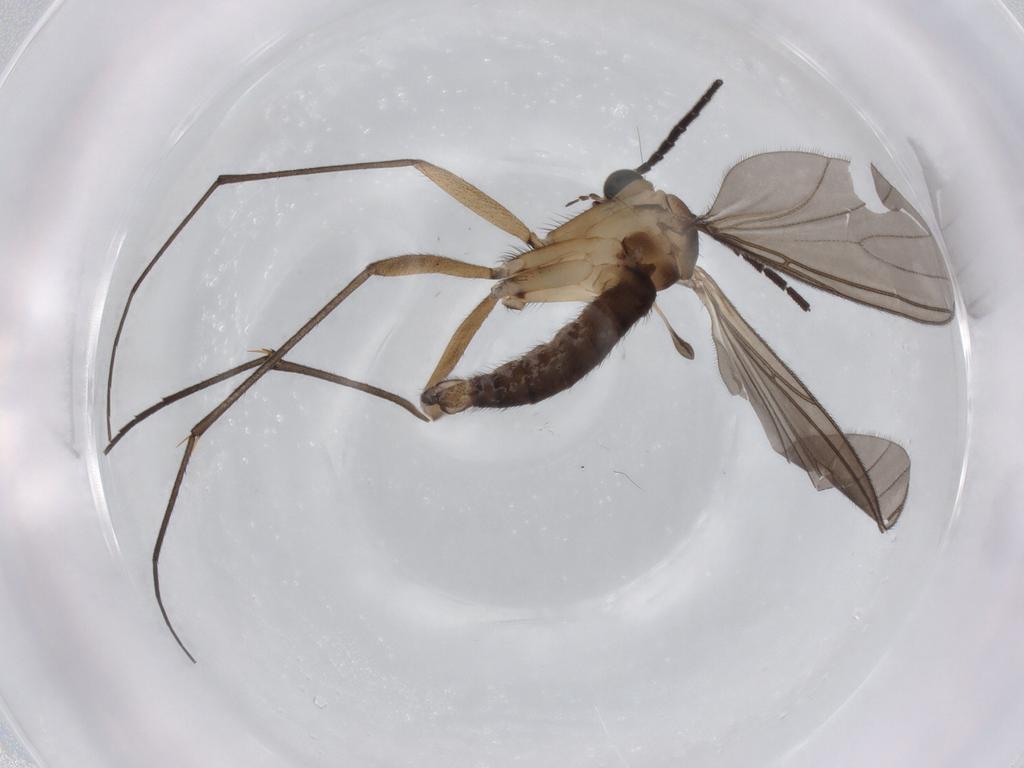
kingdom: Animalia
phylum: Arthropoda
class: Insecta
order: Diptera
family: Sciaridae
